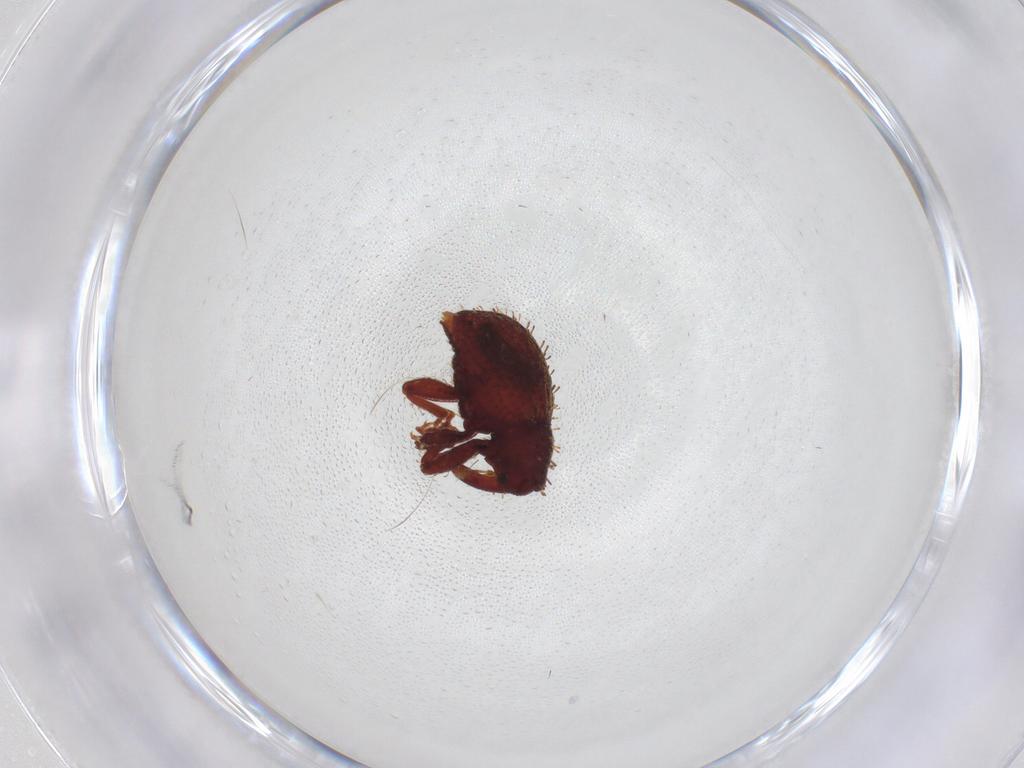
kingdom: Animalia
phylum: Arthropoda
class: Insecta
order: Coleoptera
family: Curculionidae
